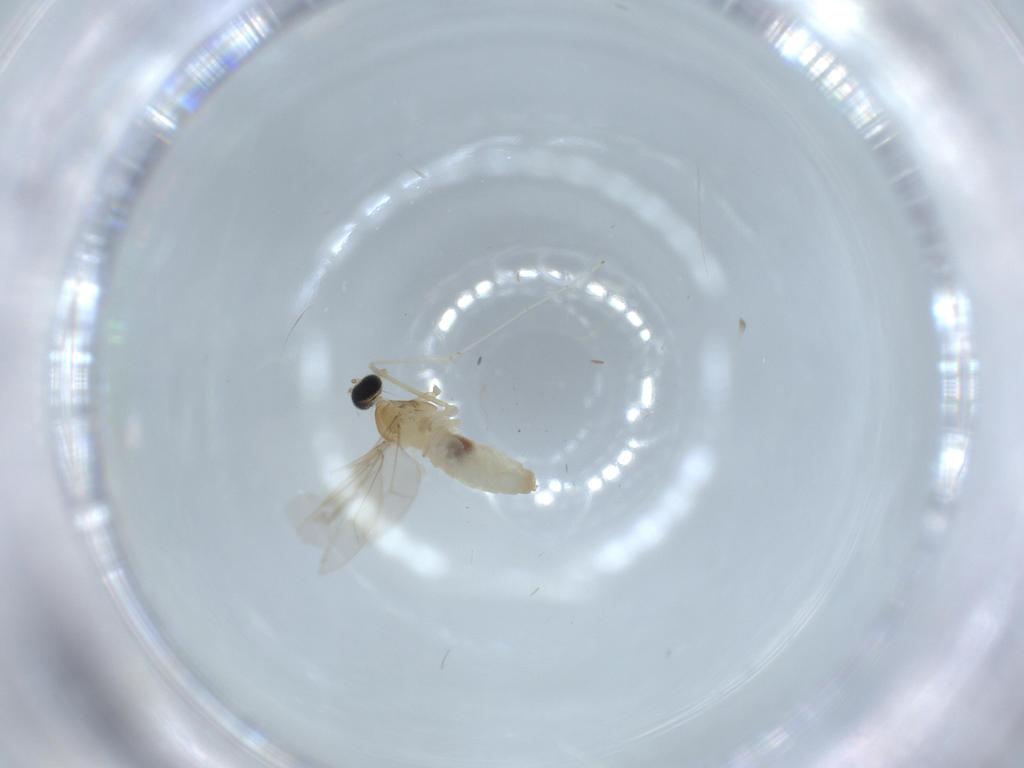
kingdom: Animalia
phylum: Arthropoda
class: Insecta
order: Diptera
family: Cecidomyiidae
